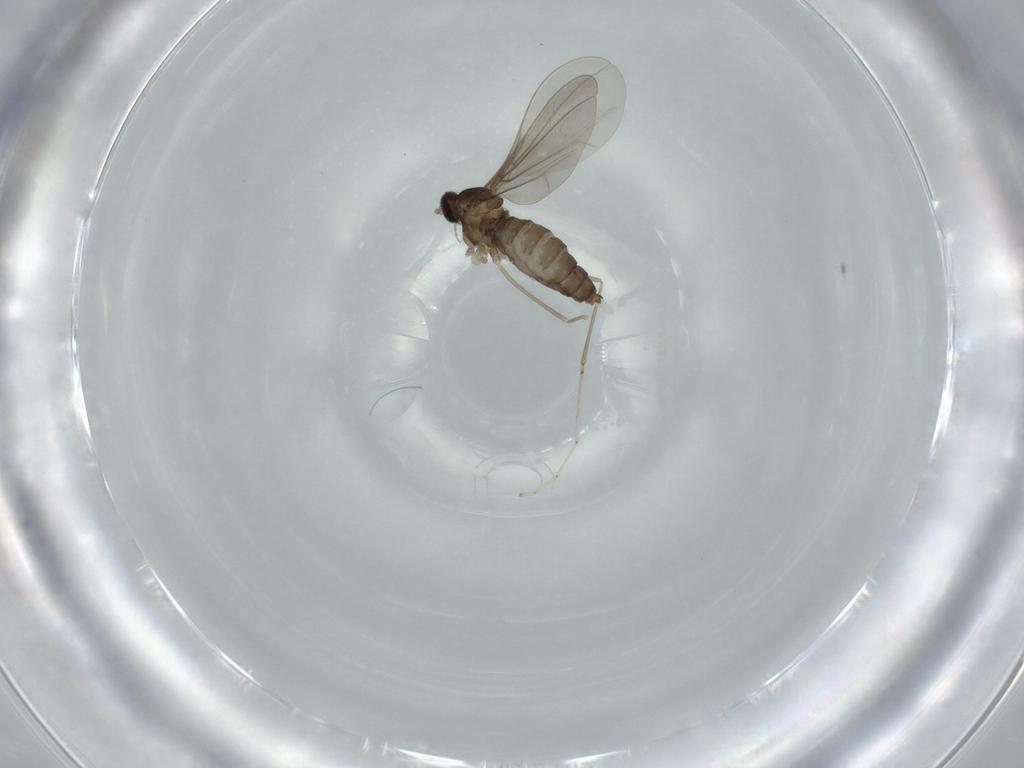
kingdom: Animalia
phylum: Arthropoda
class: Insecta
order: Diptera
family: Cecidomyiidae
